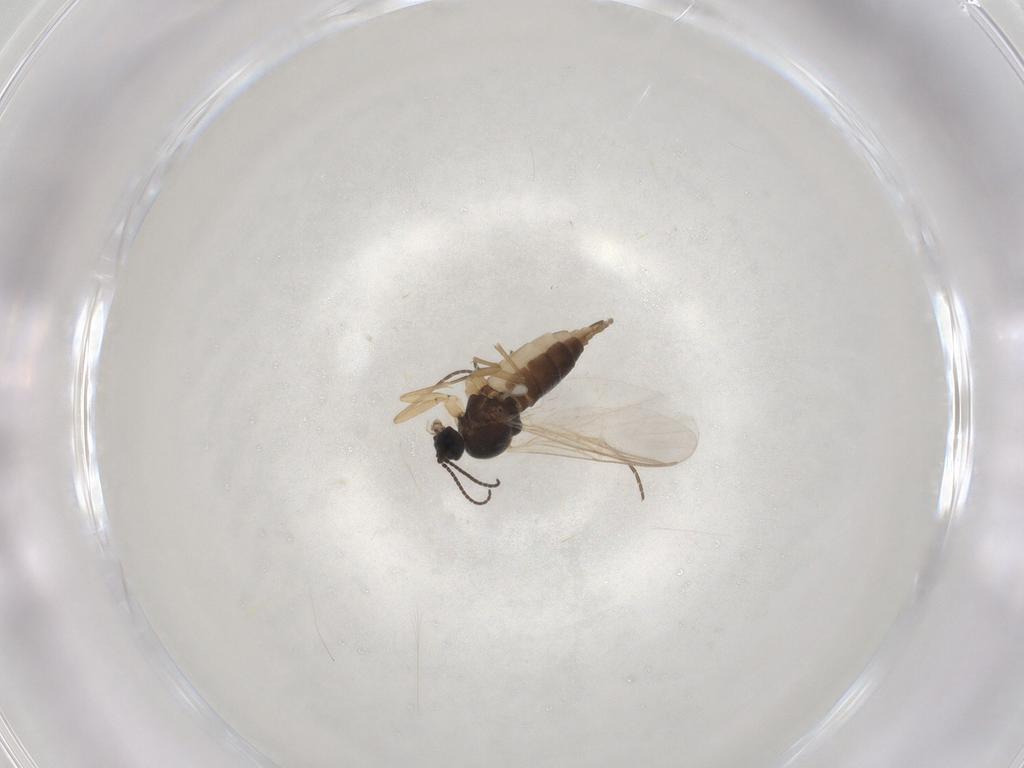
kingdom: Animalia
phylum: Arthropoda
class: Insecta
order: Diptera
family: Sciaridae
